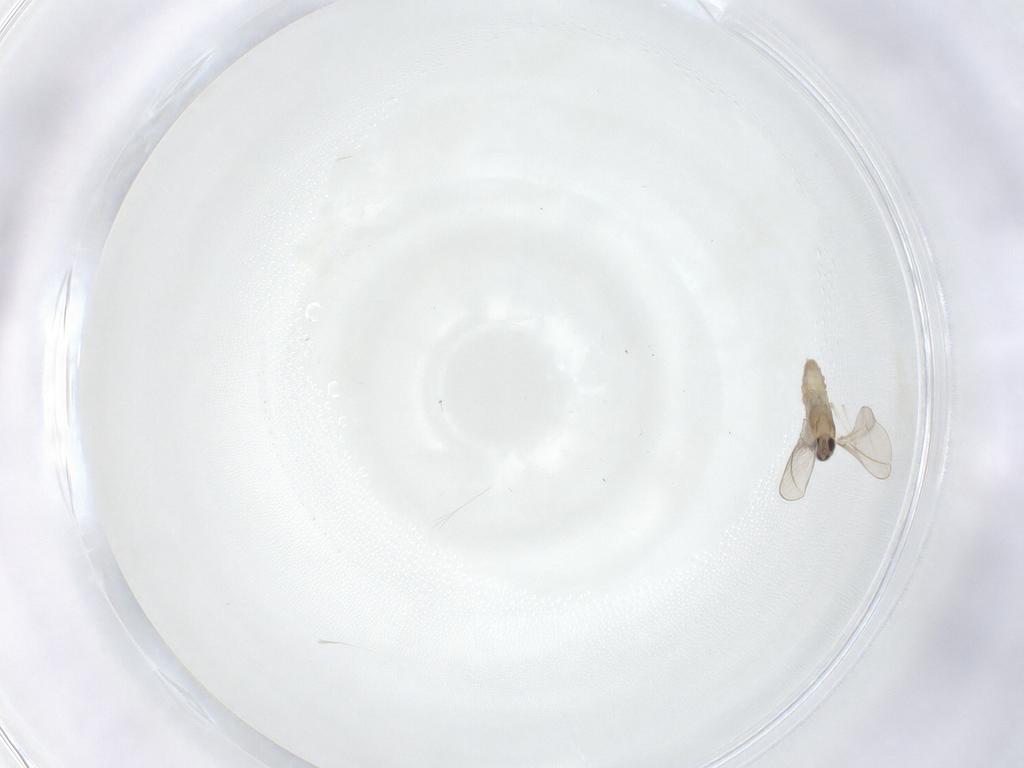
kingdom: Animalia
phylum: Arthropoda
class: Insecta
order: Diptera
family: Cecidomyiidae
